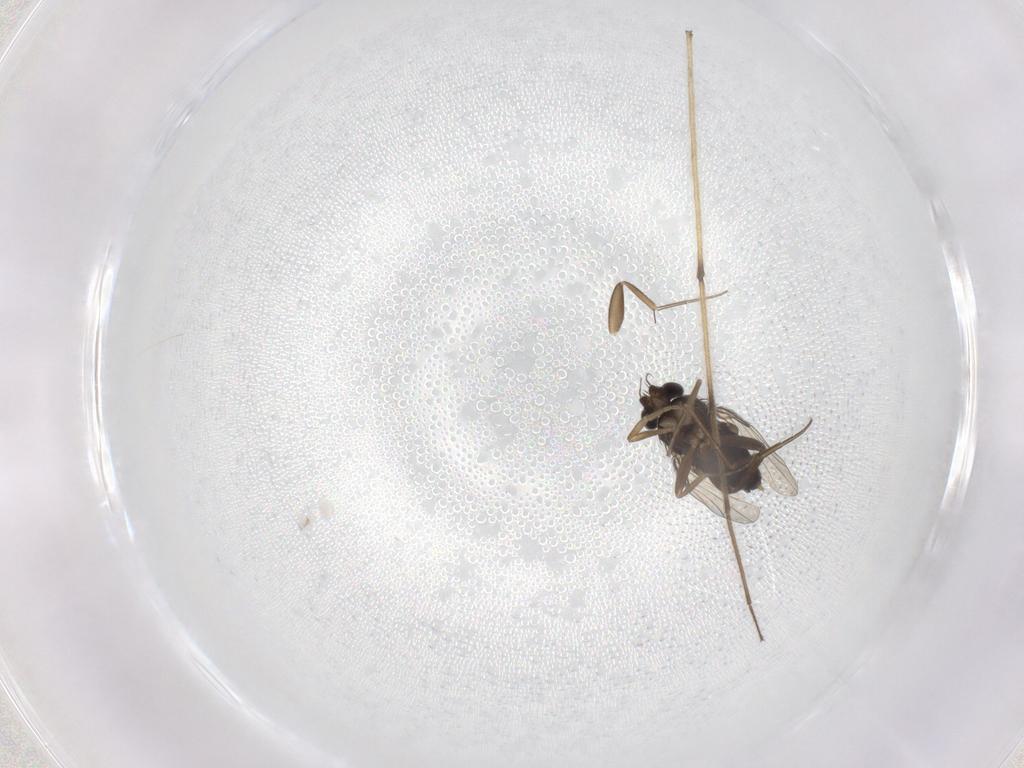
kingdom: Animalia
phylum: Arthropoda
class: Insecta
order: Diptera
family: Phoridae
